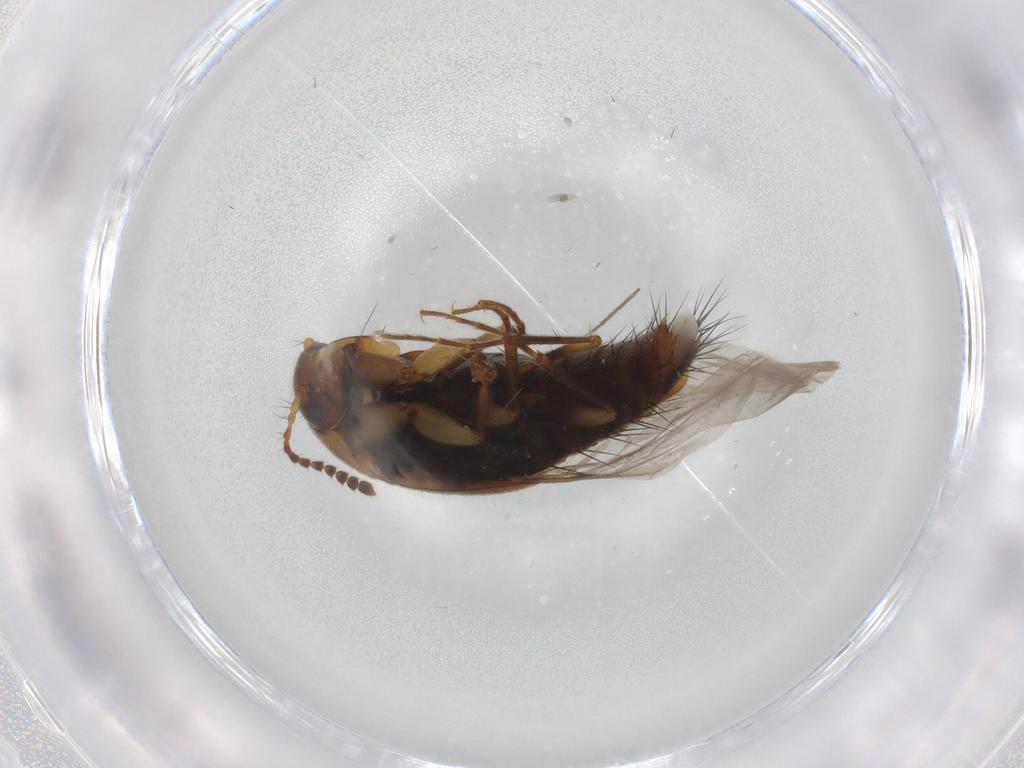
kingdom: Animalia
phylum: Arthropoda
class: Insecta
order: Coleoptera
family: Staphylinidae
